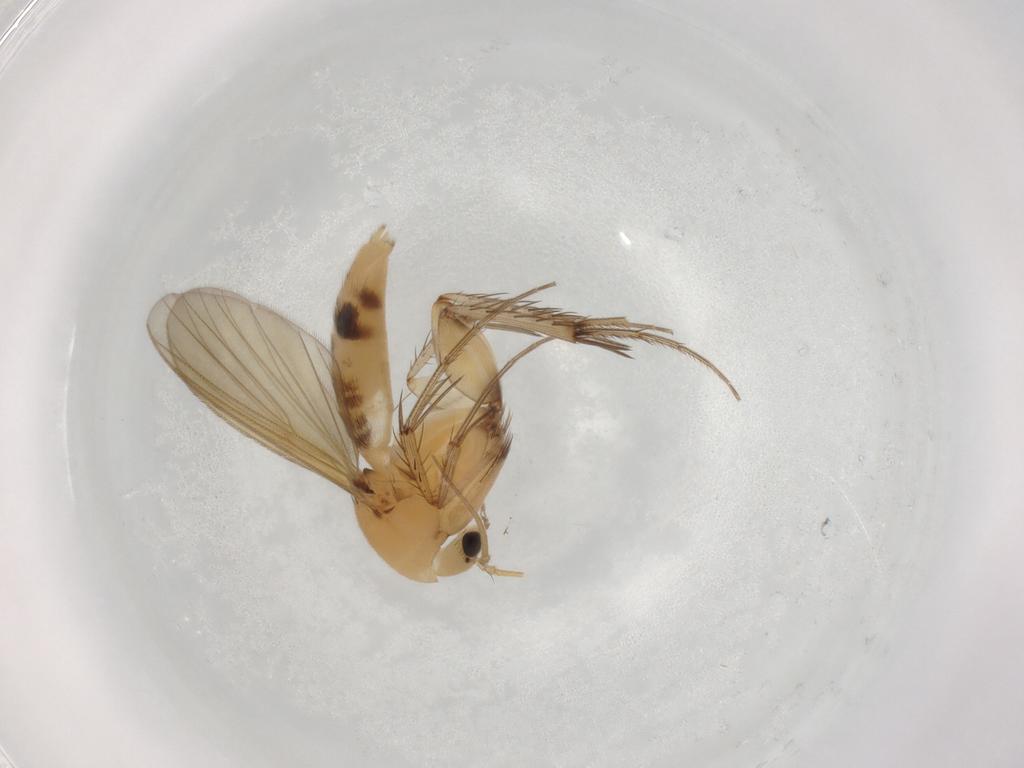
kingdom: Animalia
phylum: Arthropoda
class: Insecta
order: Diptera
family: Mycetophilidae
